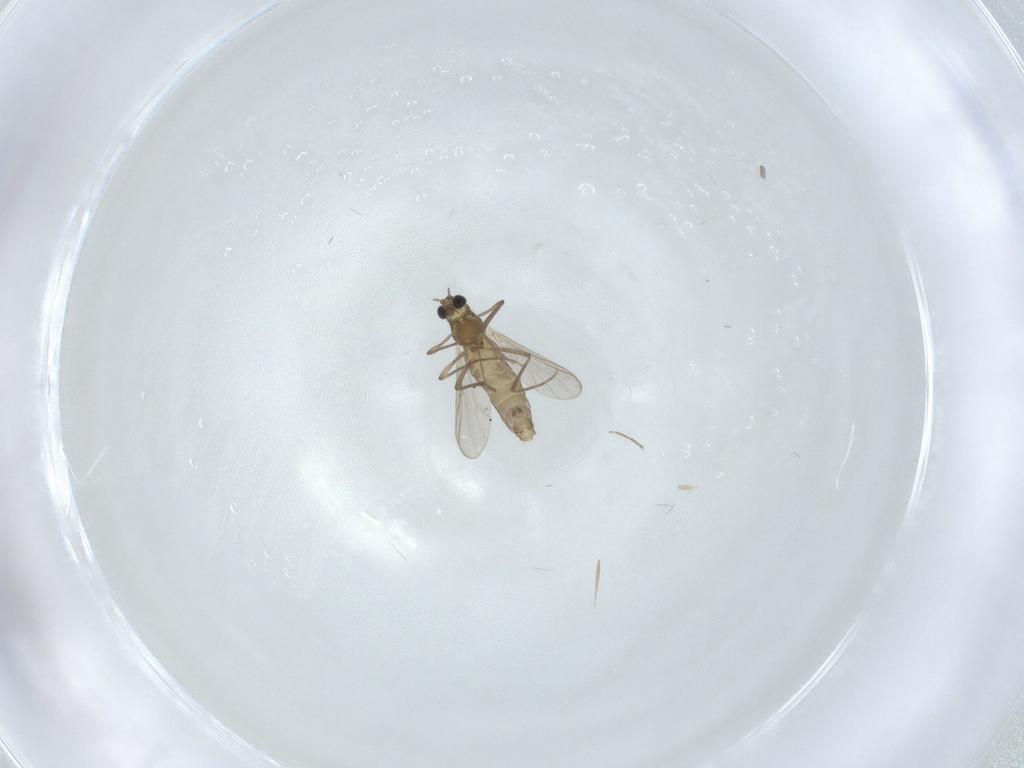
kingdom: Animalia
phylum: Arthropoda
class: Insecta
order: Diptera
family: Chironomidae
